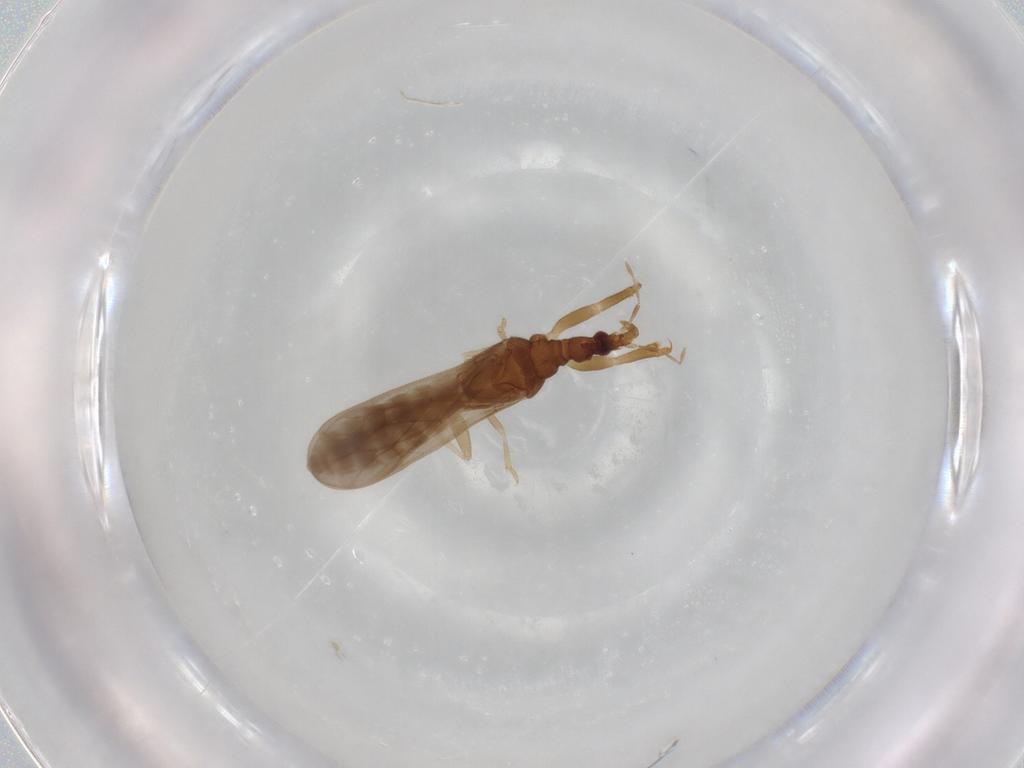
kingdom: Animalia
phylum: Arthropoda
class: Insecta
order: Hemiptera
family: Enicocephalidae
